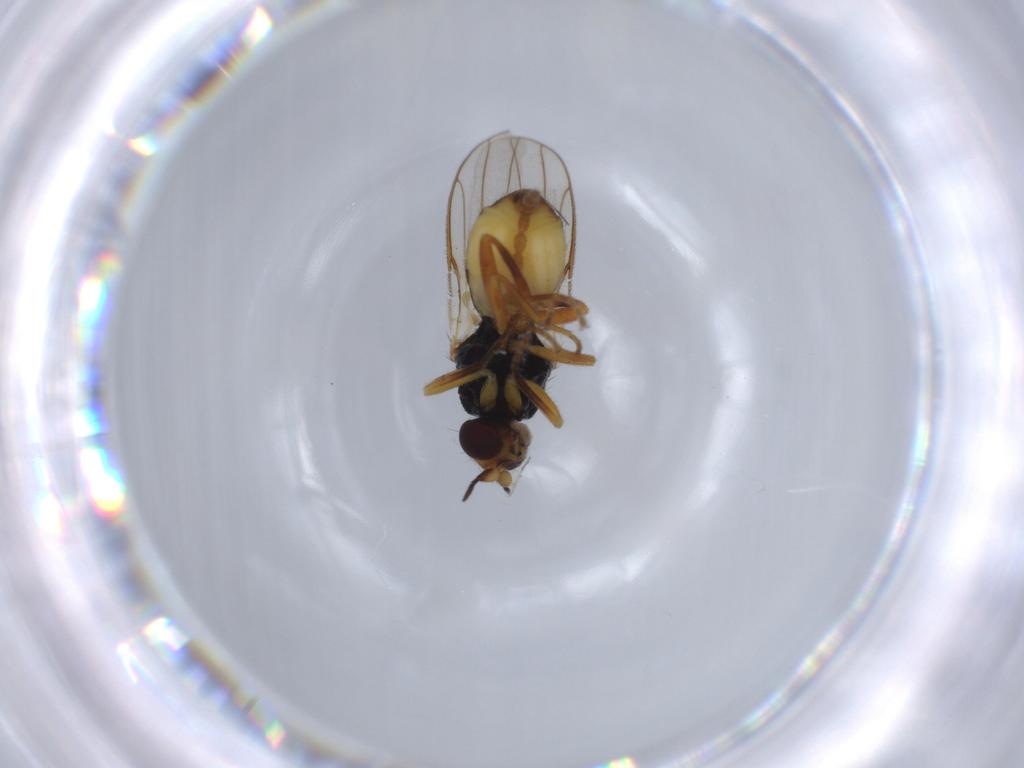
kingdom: Animalia
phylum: Arthropoda
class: Insecta
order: Diptera
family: Chloropidae
